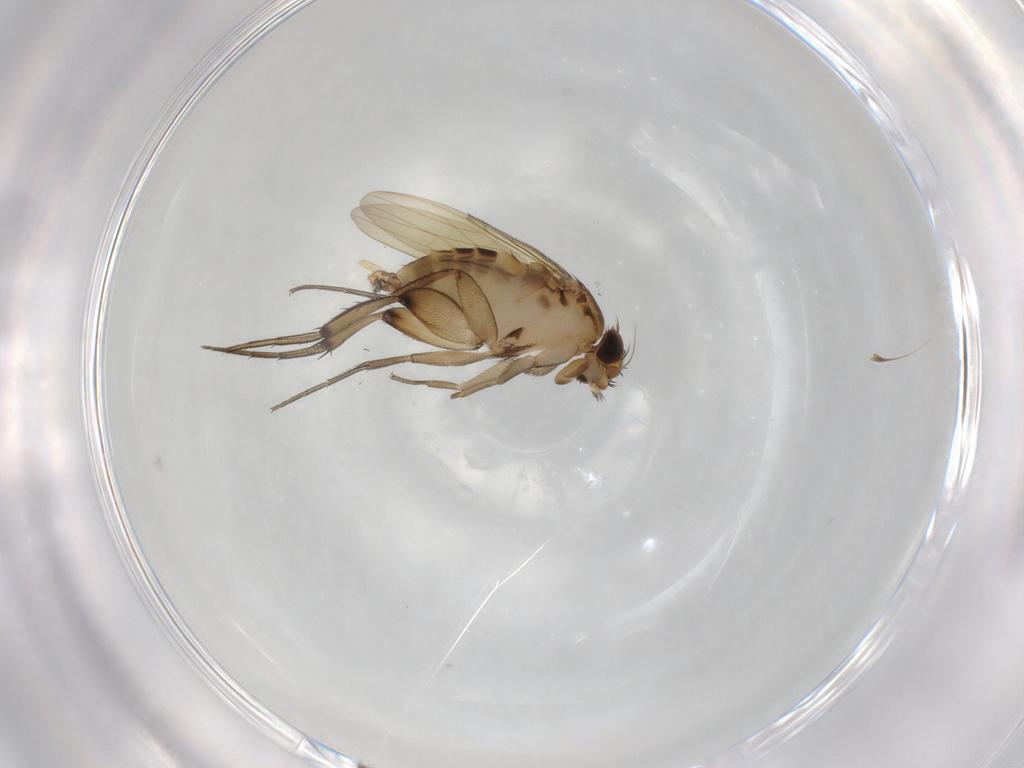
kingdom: Animalia
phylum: Arthropoda
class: Insecta
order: Diptera
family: Phoridae
